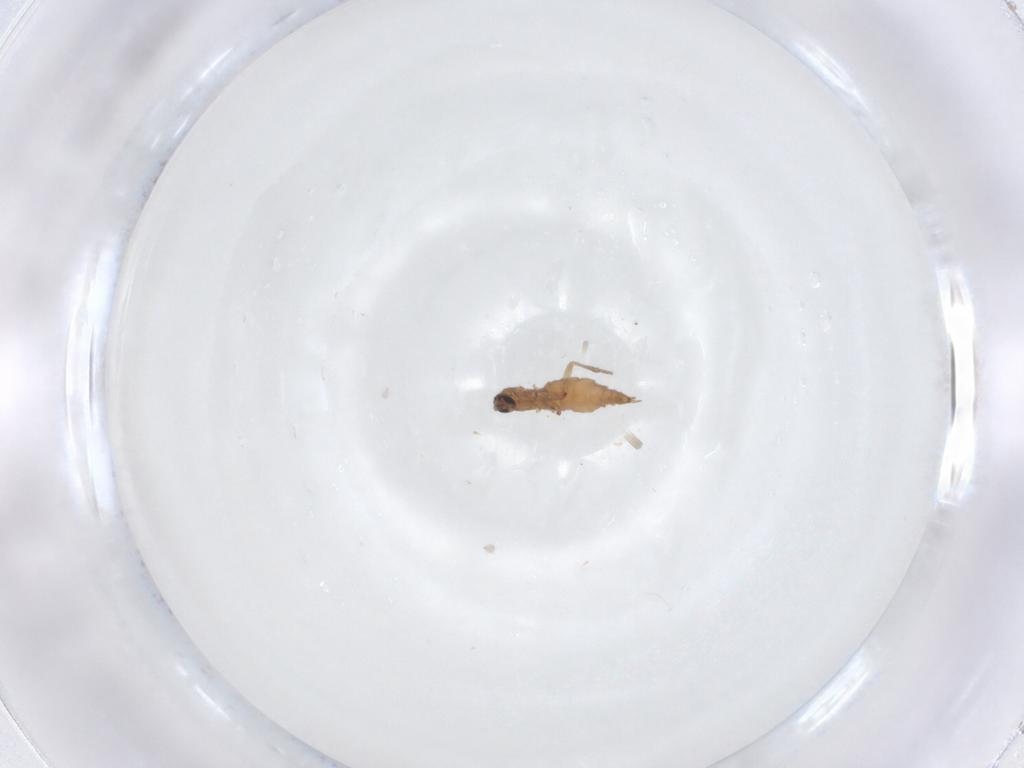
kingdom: Animalia
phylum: Arthropoda
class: Insecta
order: Diptera
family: Sciaridae
